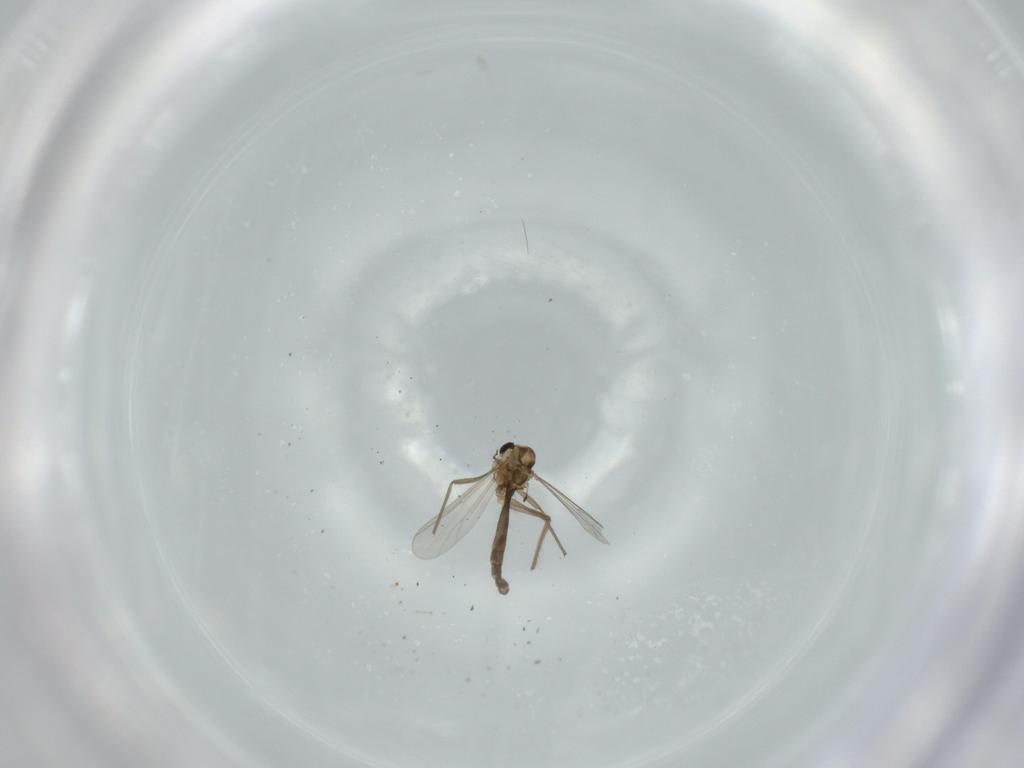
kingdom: Animalia
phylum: Arthropoda
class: Insecta
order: Diptera
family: Chironomidae
